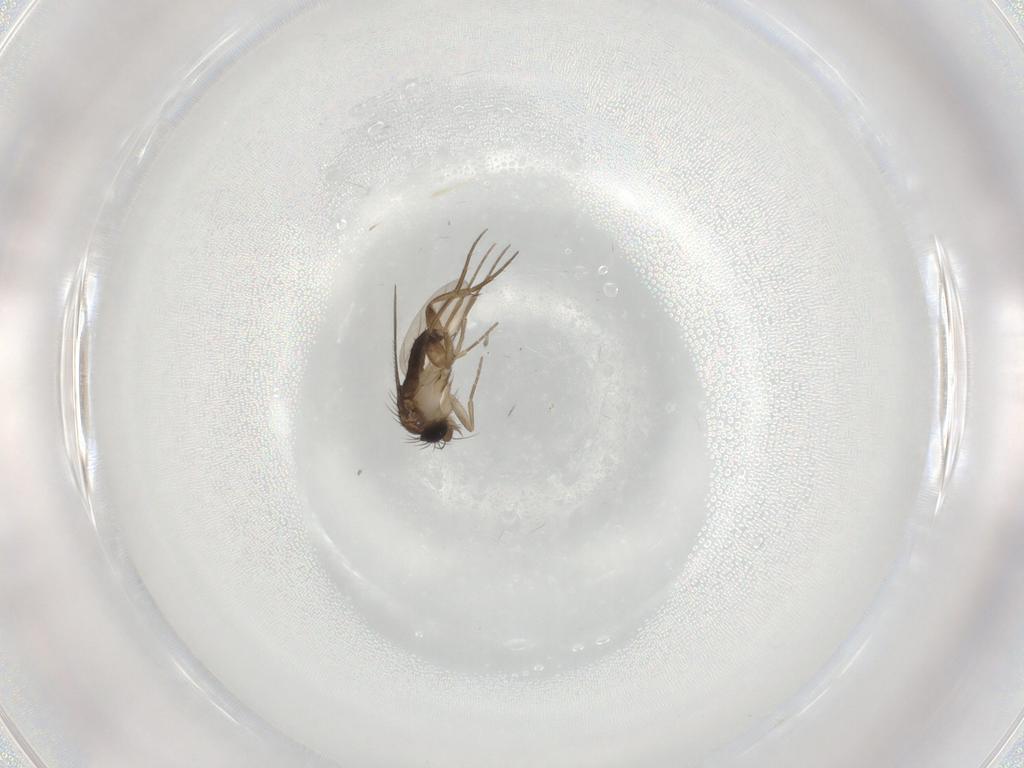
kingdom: Animalia
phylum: Arthropoda
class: Insecta
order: Diptera
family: Phoridae
